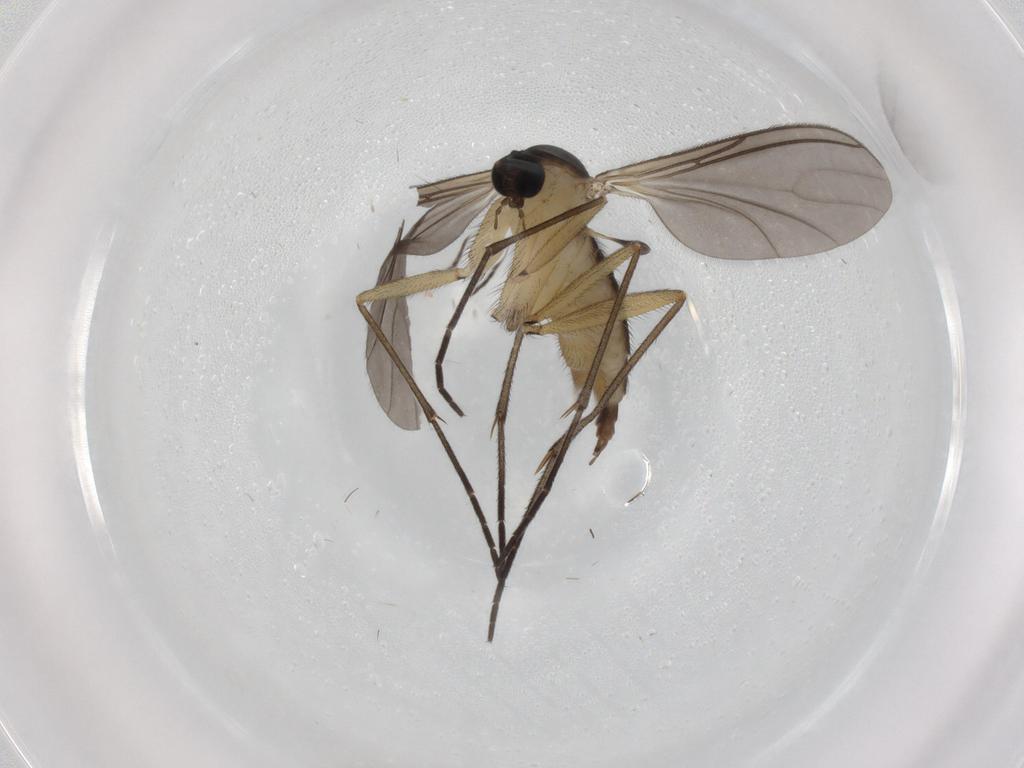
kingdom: Animalia
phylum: Arthropoda
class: Insecta
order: Diptera
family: Sciaridae
